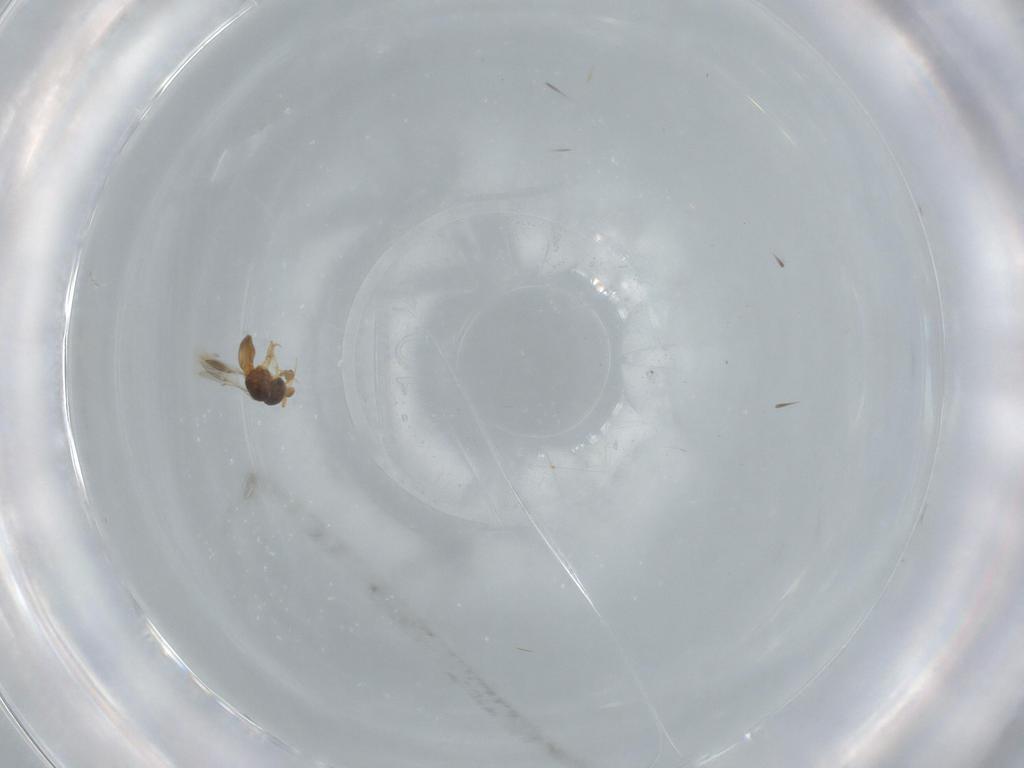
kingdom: Animalia
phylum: Arthropoda
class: Insecta
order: Hymenoptera
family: Scelionidae
